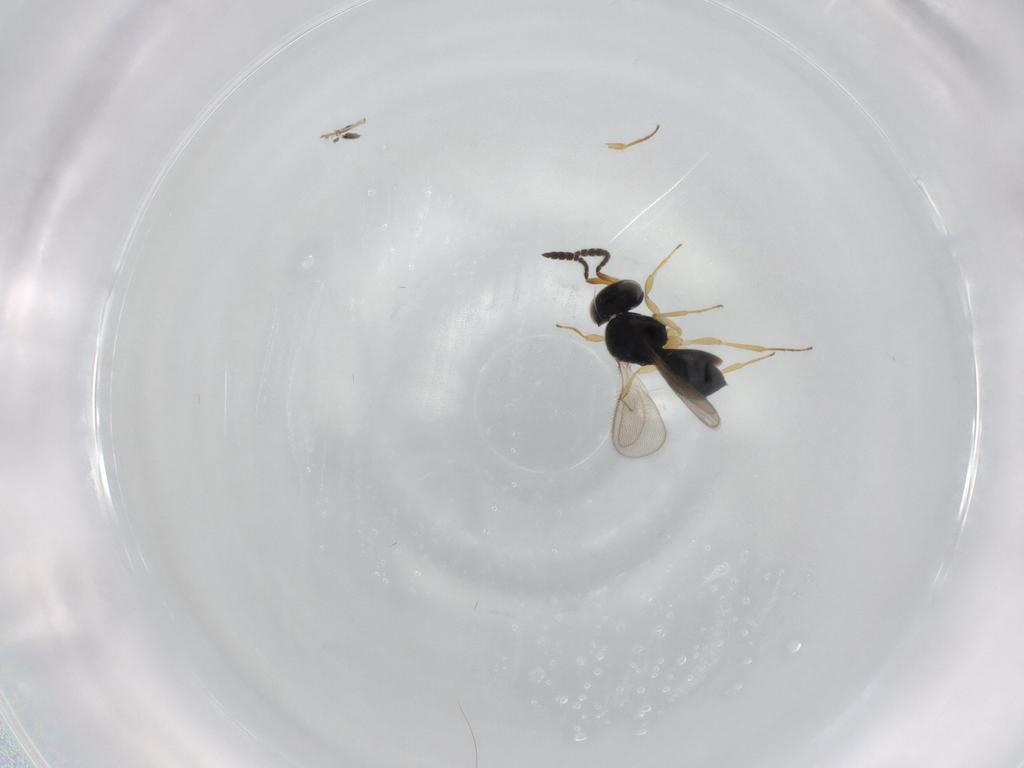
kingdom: Animalia
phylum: Arthropoda
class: Insecta
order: Hymenoptera
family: Scelionidae
